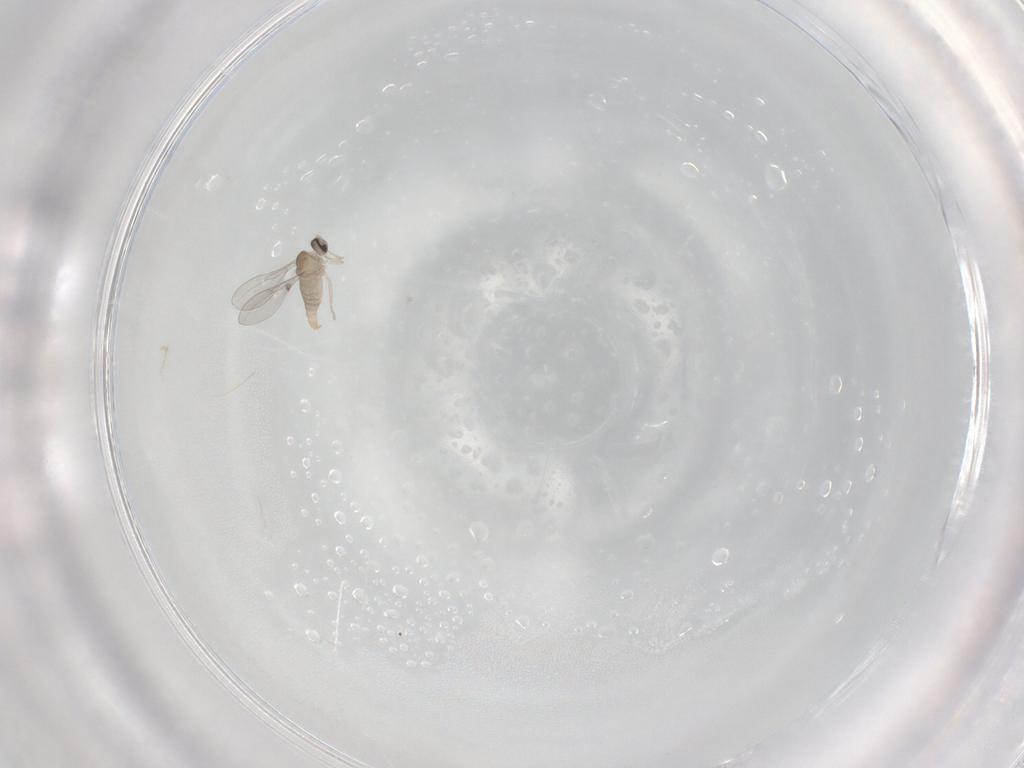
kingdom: Animalia
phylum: Arthropoda
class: Insecta
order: Diptera
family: Cecidomyiidae
